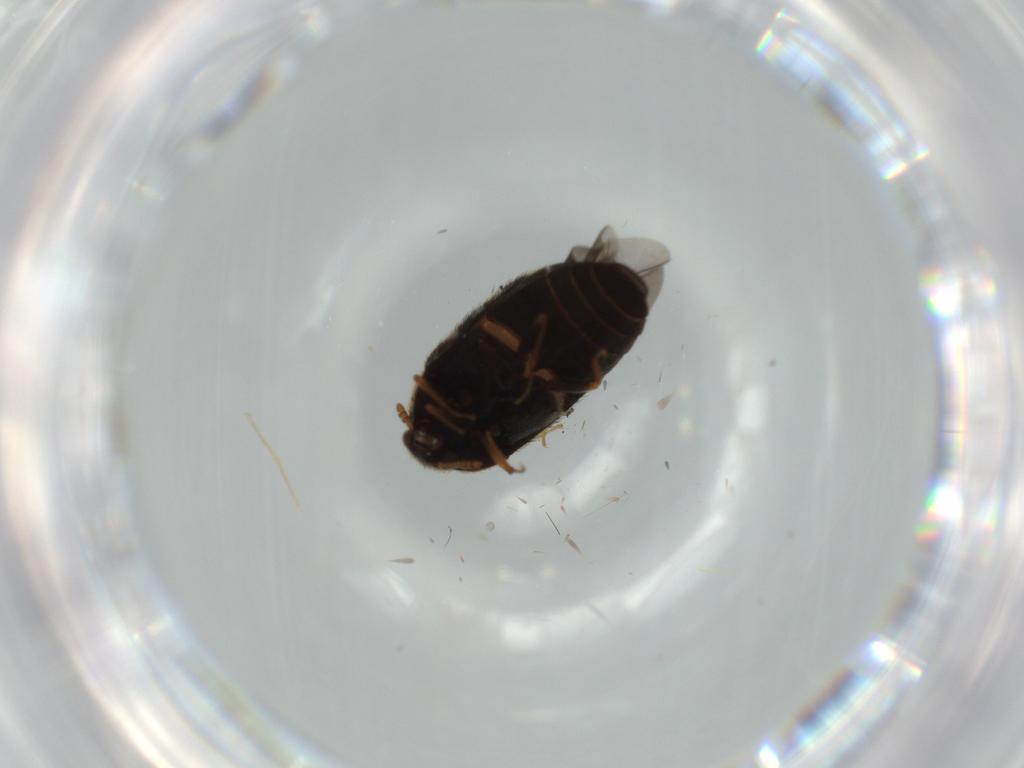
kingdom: Animalia
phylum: Arthropoda
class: Insecta
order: Coleoptera
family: Dermestidae
